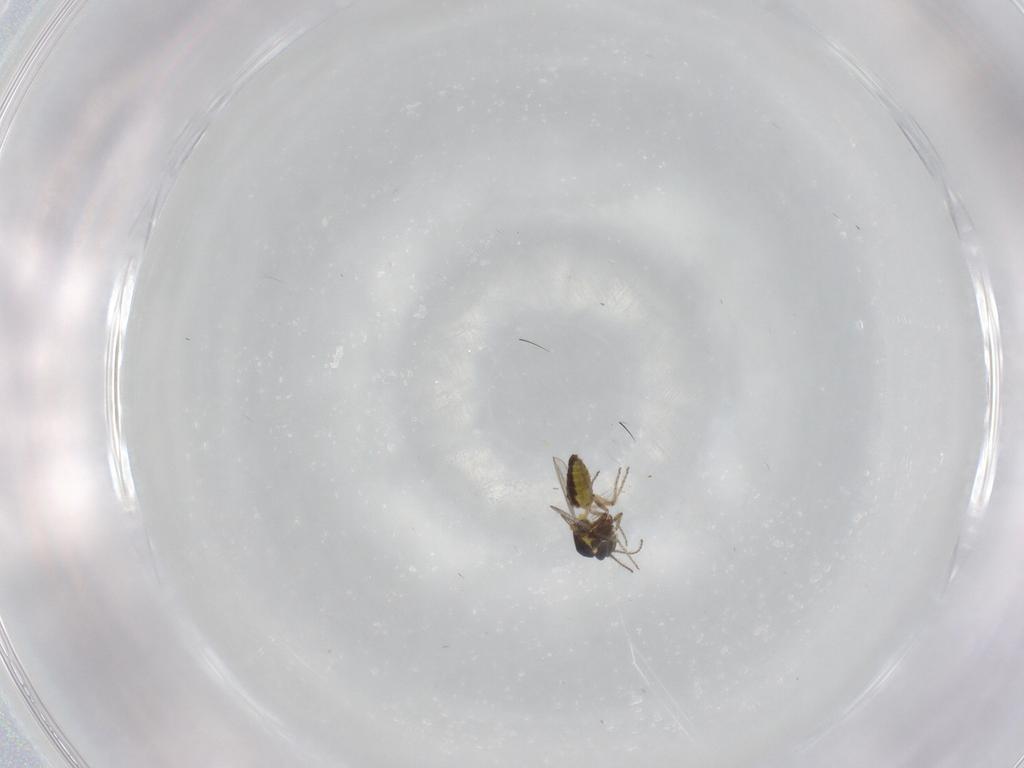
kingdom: Animalia
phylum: Arthropoda
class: Insecta
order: Diptera
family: Ceratopogonidae
